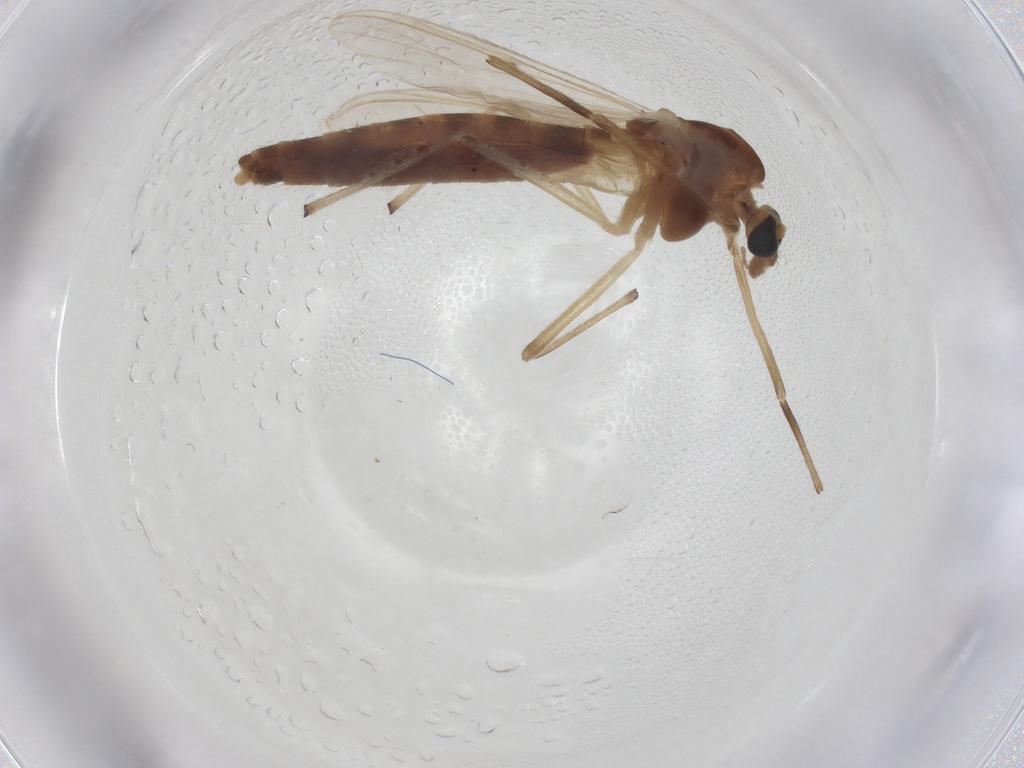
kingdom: Animalia
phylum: Arthropoda
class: Insecta
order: Diptera
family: Chironomidae
